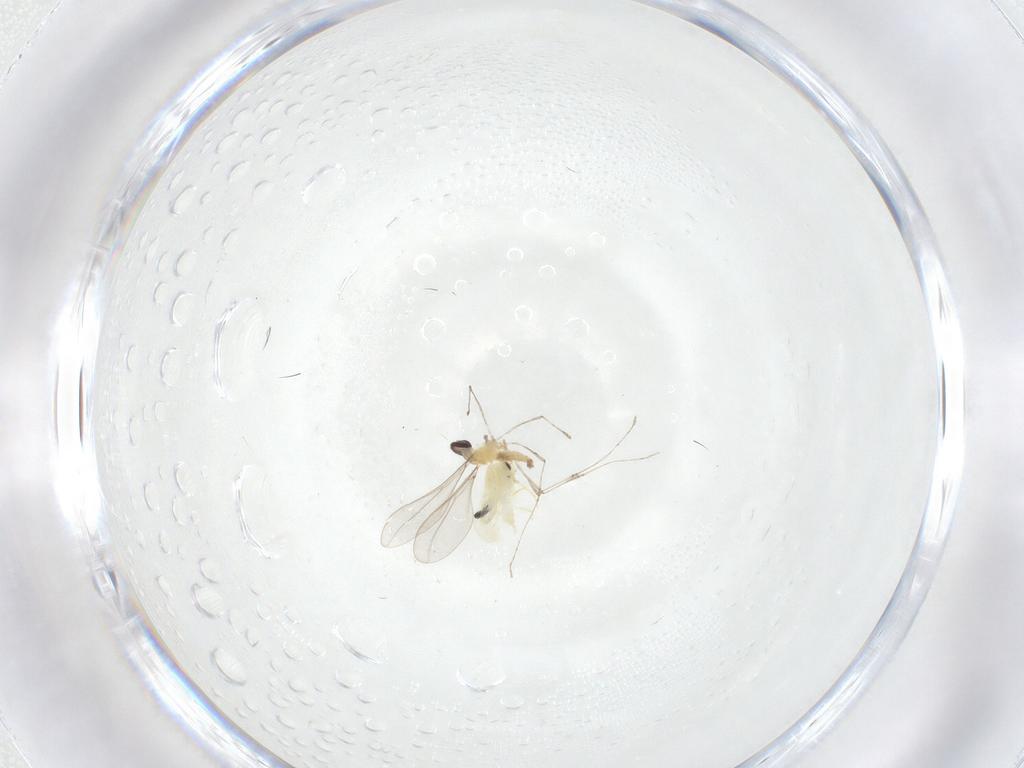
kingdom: Animalia
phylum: Arthropoda
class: Insecta
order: Hemiptera
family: Aleyrodidae
